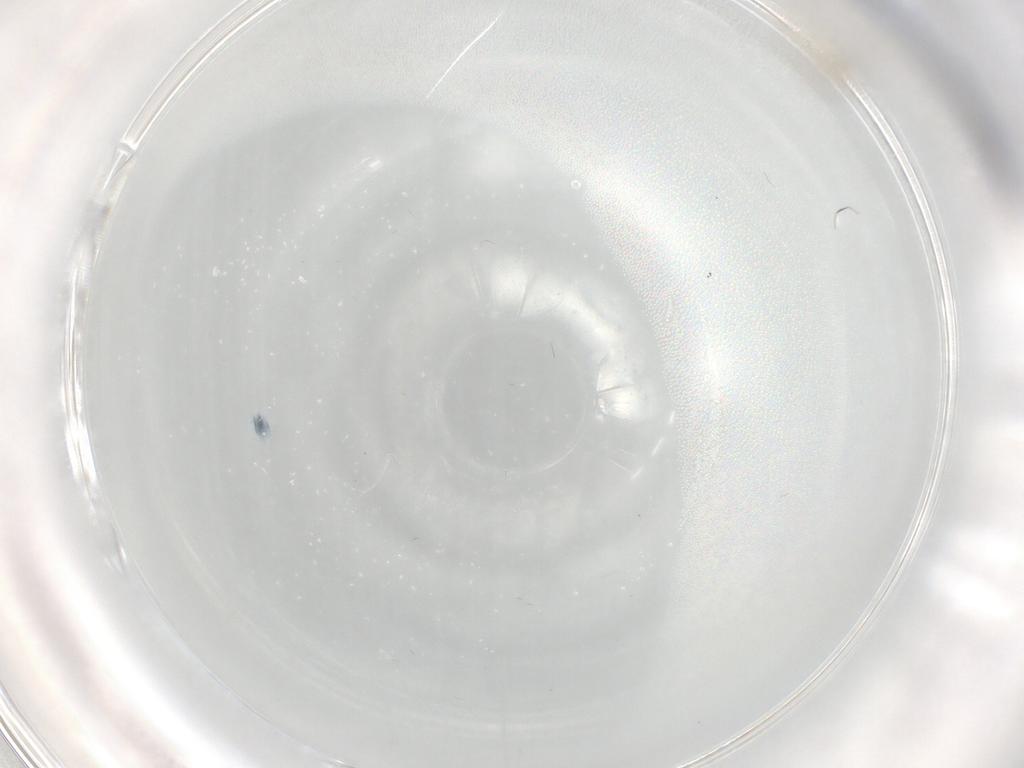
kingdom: Animalia
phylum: Arthropoda
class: Insecta
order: Diptera
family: Cecidomyiidae
